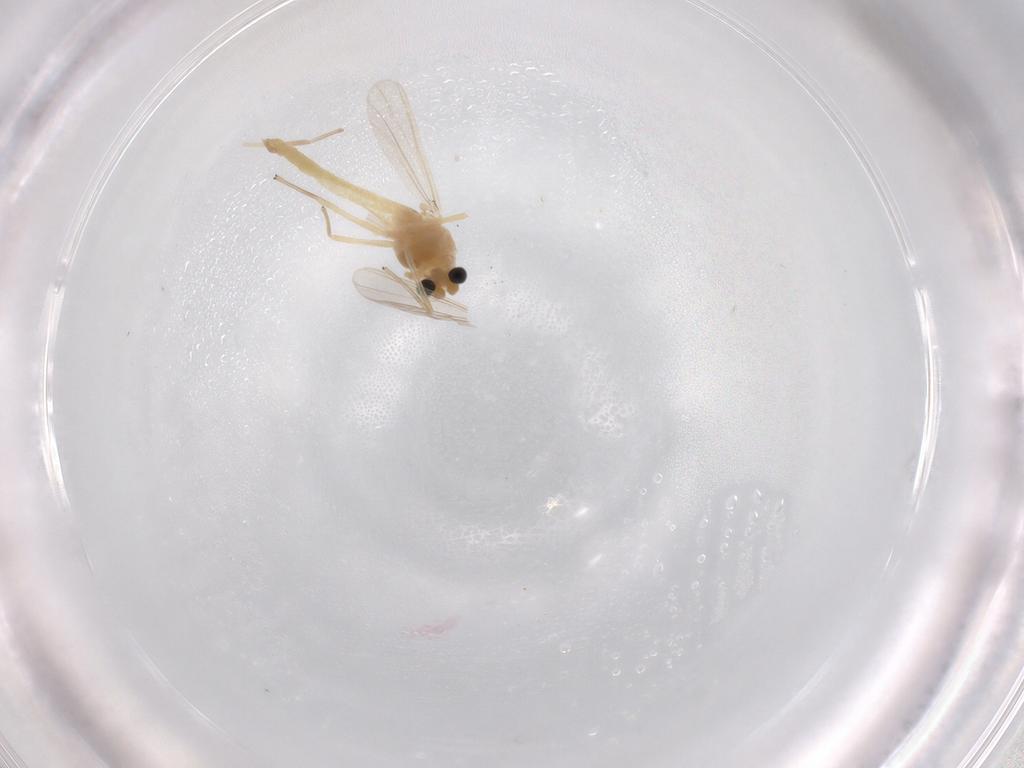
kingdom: Animalia
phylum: Arthropoda
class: Insecta
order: Diptera
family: Chironomidae
